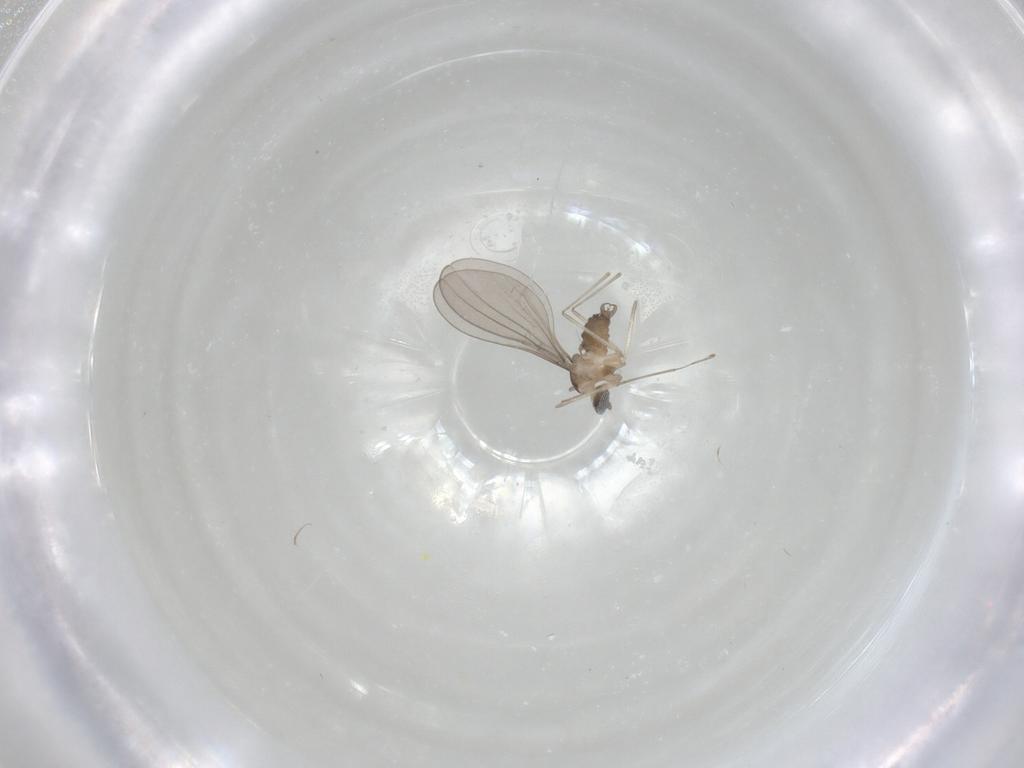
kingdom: Animalia
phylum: Arthropoda
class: Insecta
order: Diptera
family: Cecidomyiidae
